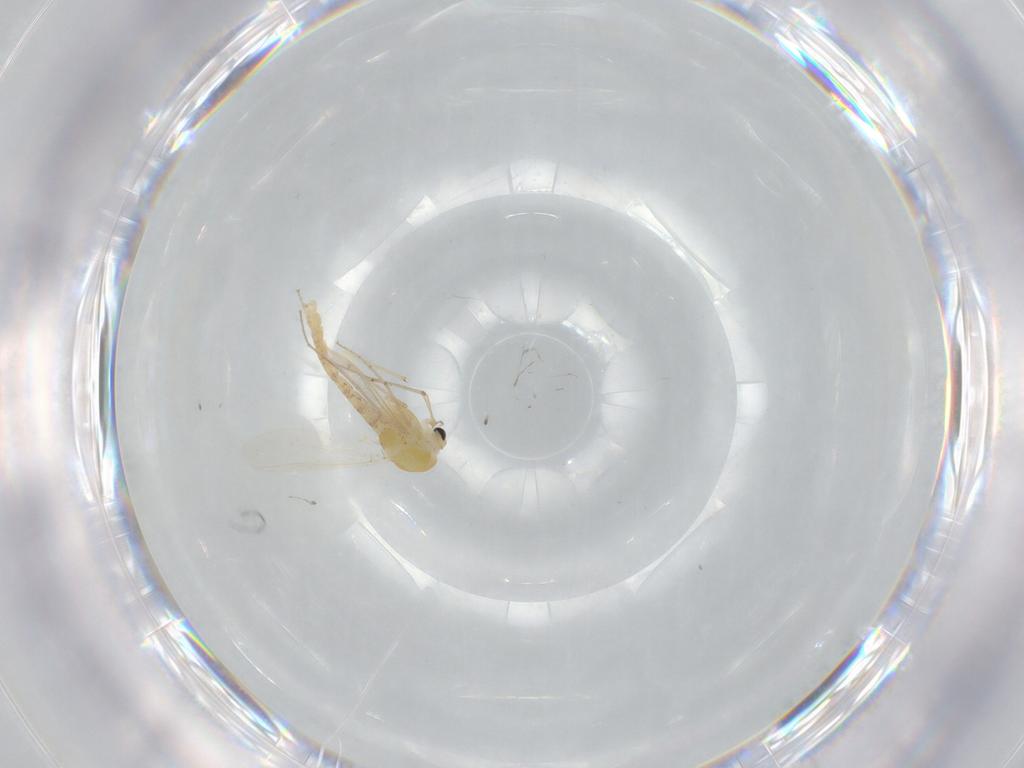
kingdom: Animalia
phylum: Arthropoda
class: Insecta
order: Diptera
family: Chironomidae
